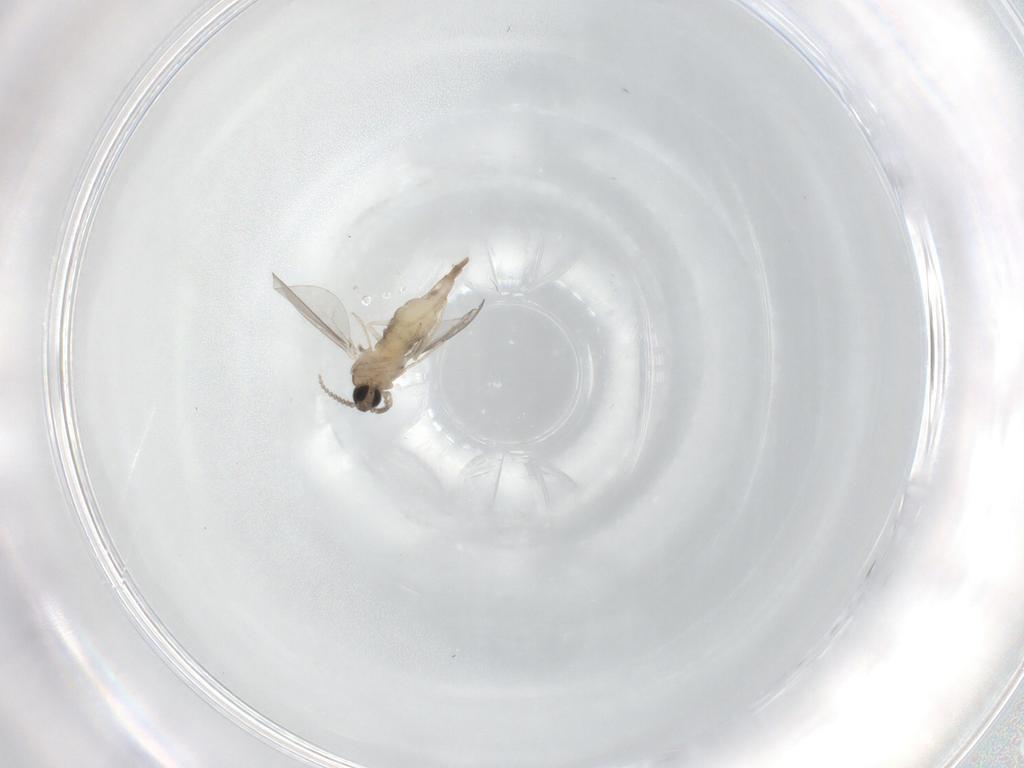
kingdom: Animalia
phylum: Arthropoda
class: Insecta
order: Diptera
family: Cecidomyiidae
